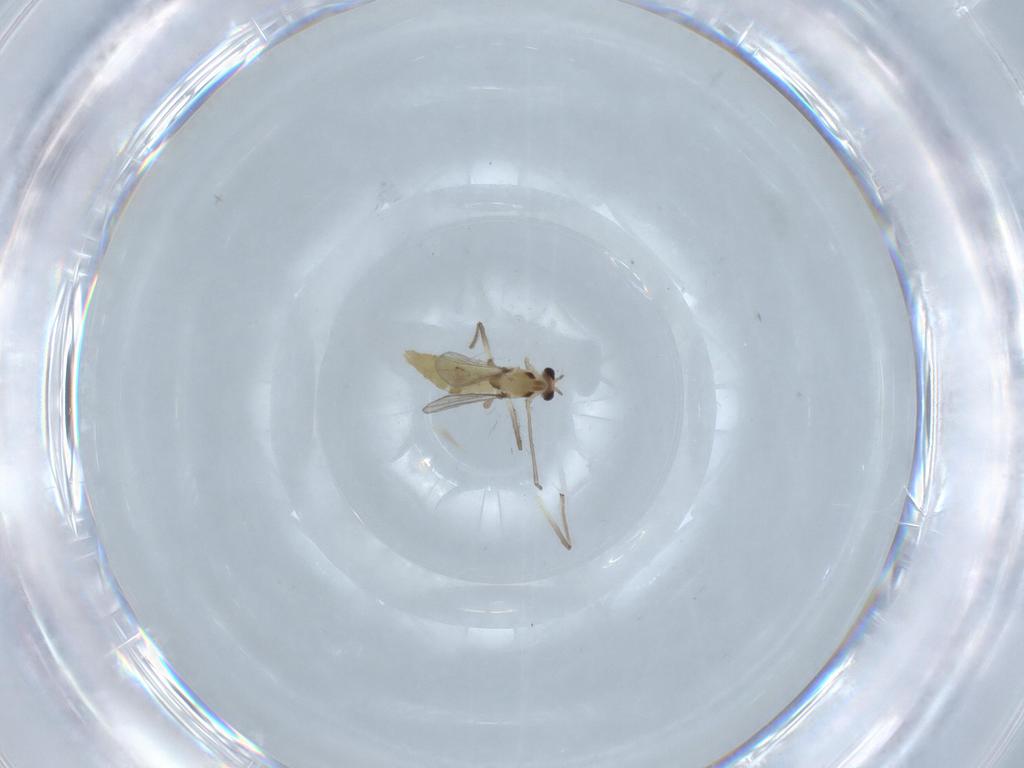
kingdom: Animalia
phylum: Arthropoda
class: Insecta
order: Diptera
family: Chironomidae
